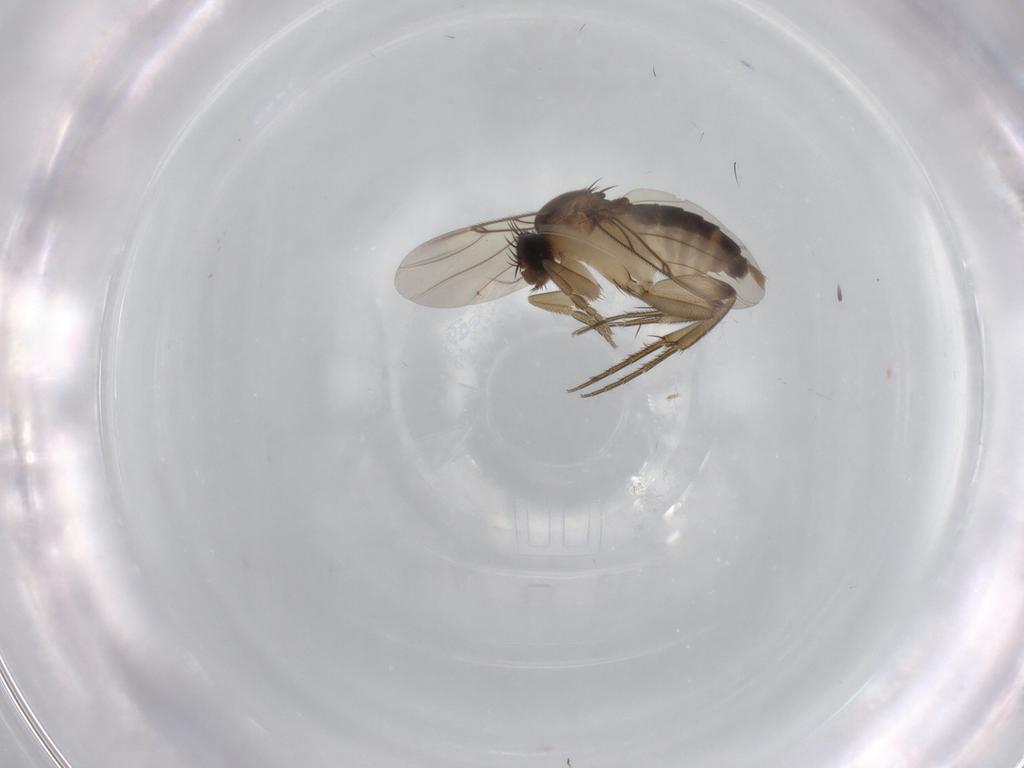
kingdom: Animalia
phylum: Arthropoda
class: Insecta
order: Diptera
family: Phoridae
